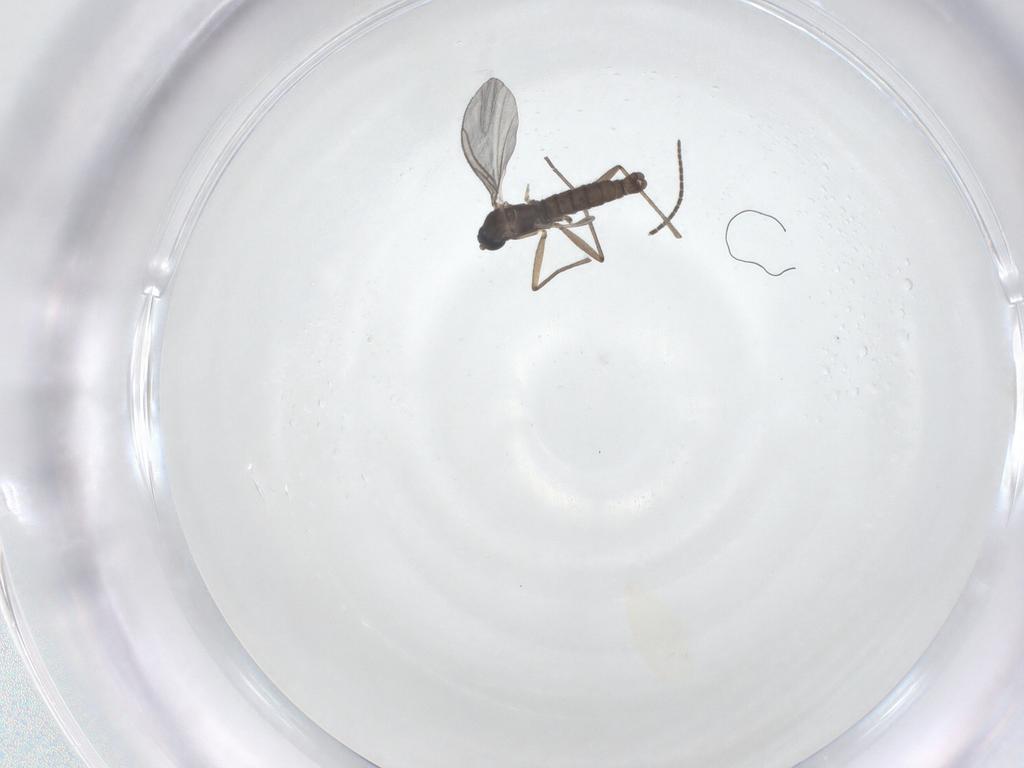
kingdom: Animalia
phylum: Arthropoda
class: Insecta
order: Diptera
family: Sciaridae
